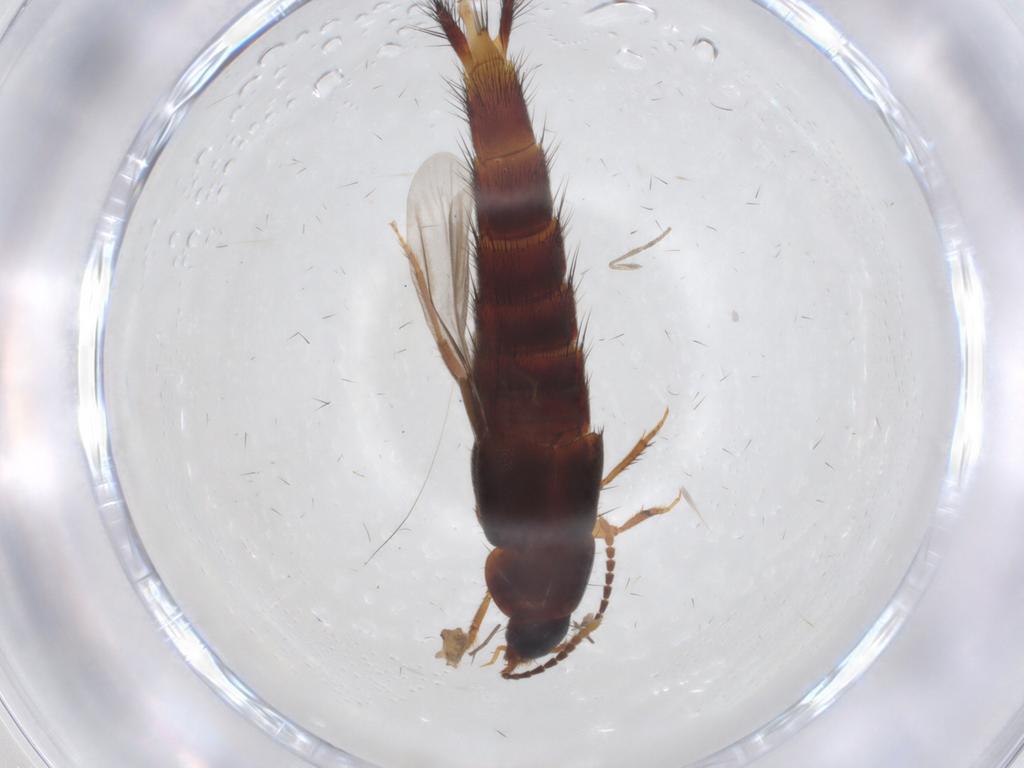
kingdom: Animalia
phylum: Arthropoda
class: Insecta
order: Coleoptera
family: Staphylinidae
